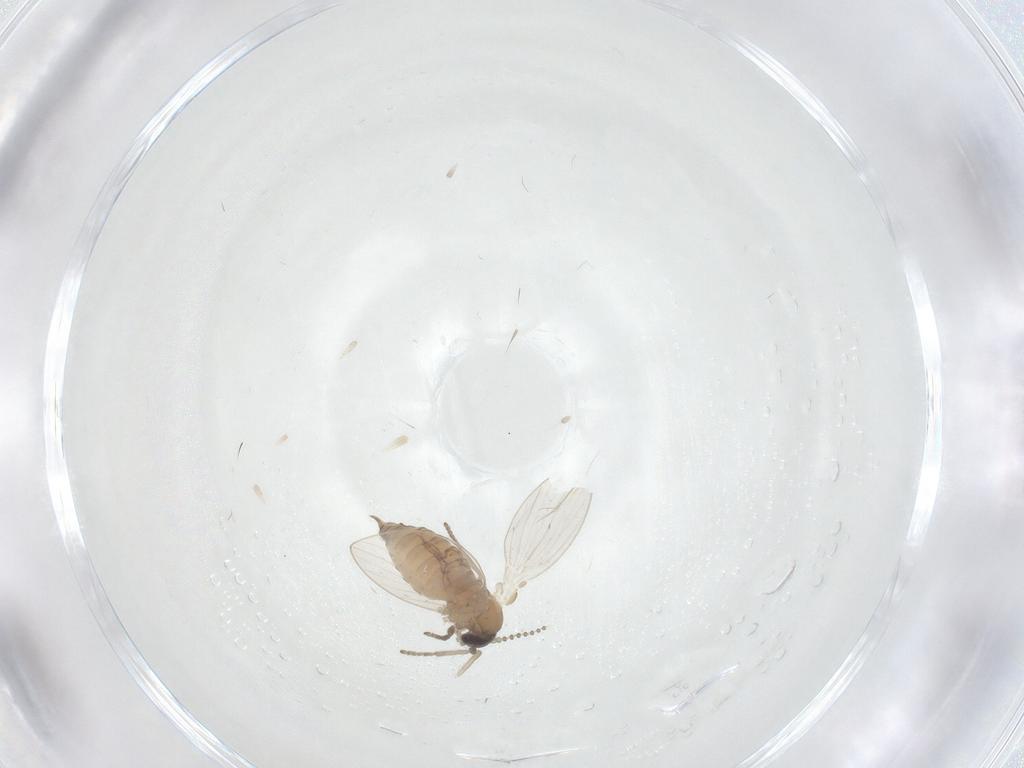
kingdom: Animalia
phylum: Arthropoda
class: Insecta
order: Diptera
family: Psychodidae
